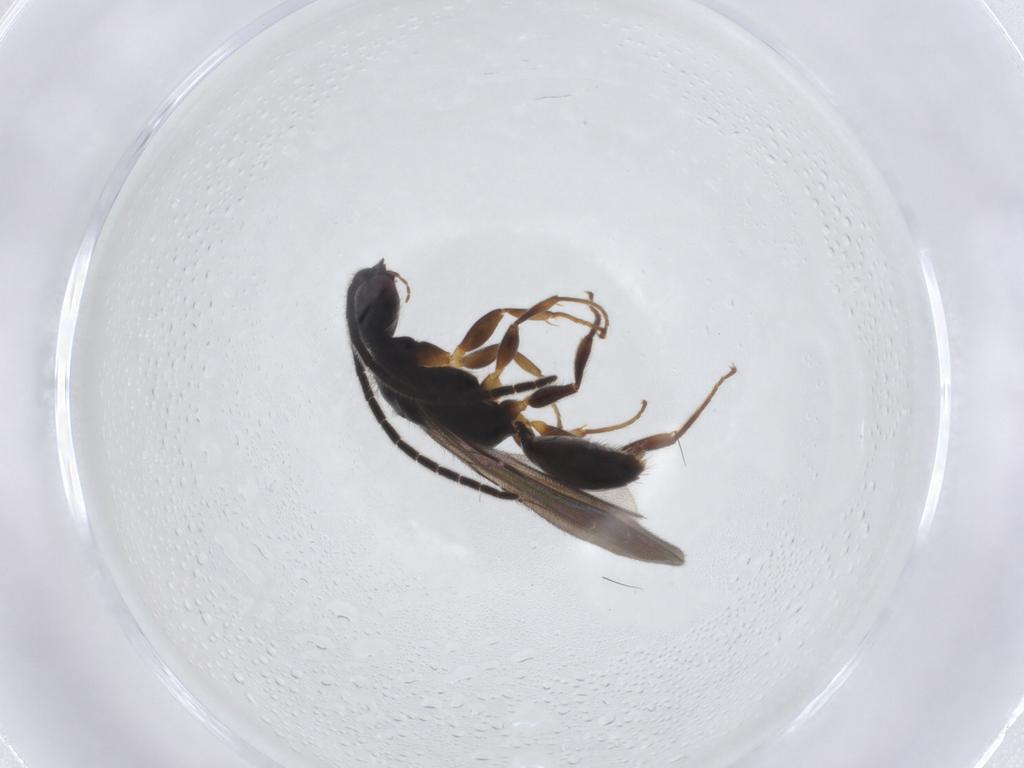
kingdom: Animalia
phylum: Arthropoda
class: Insecta
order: Hymenoptera
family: Bethylidae
